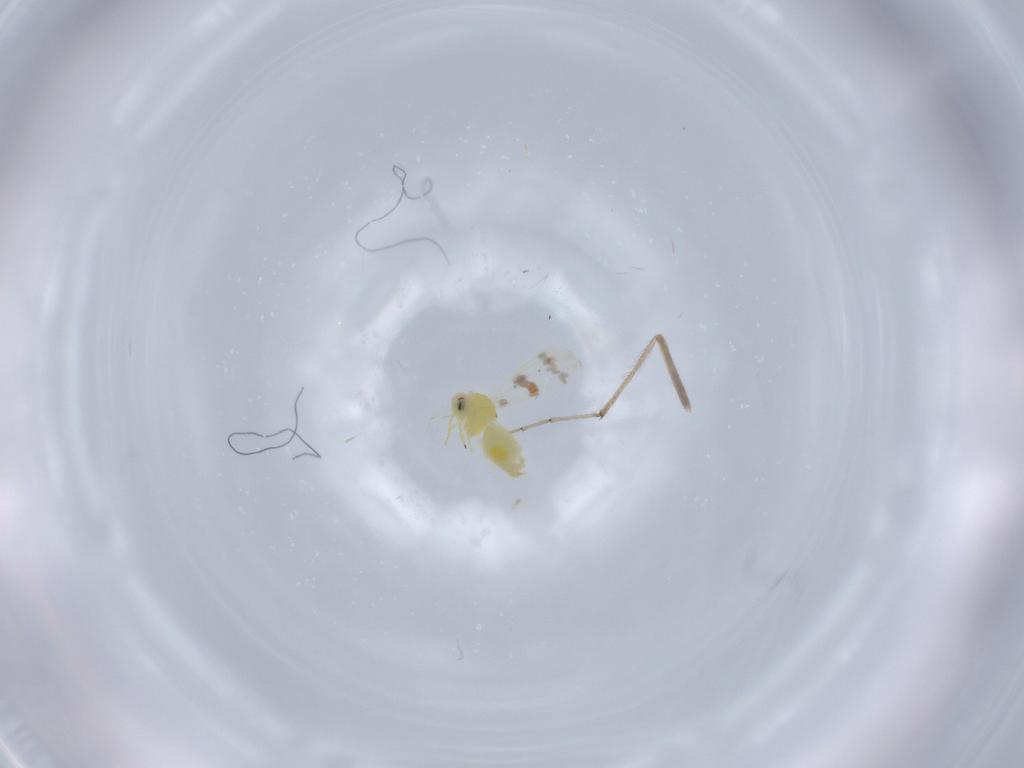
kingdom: Animalia
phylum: Arthropoda
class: Insecta
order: Hemiptera
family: Aleyrodidae
